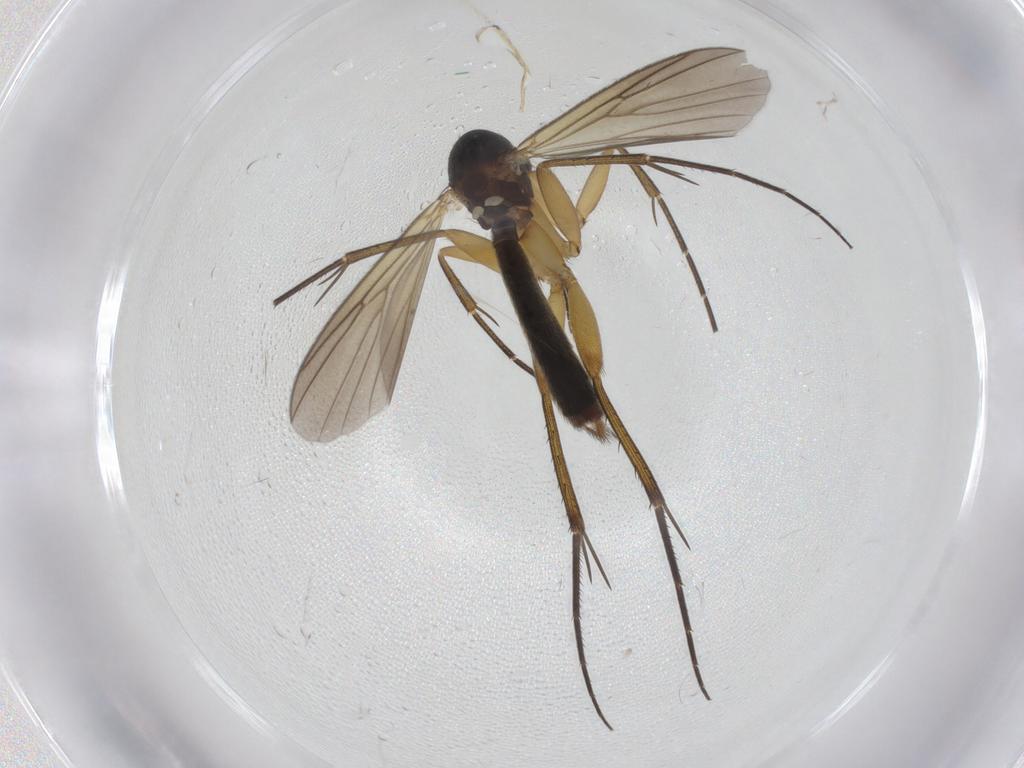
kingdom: Animalia
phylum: Arthropoda
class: Insecta
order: Diptera
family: Mycetophilidae
